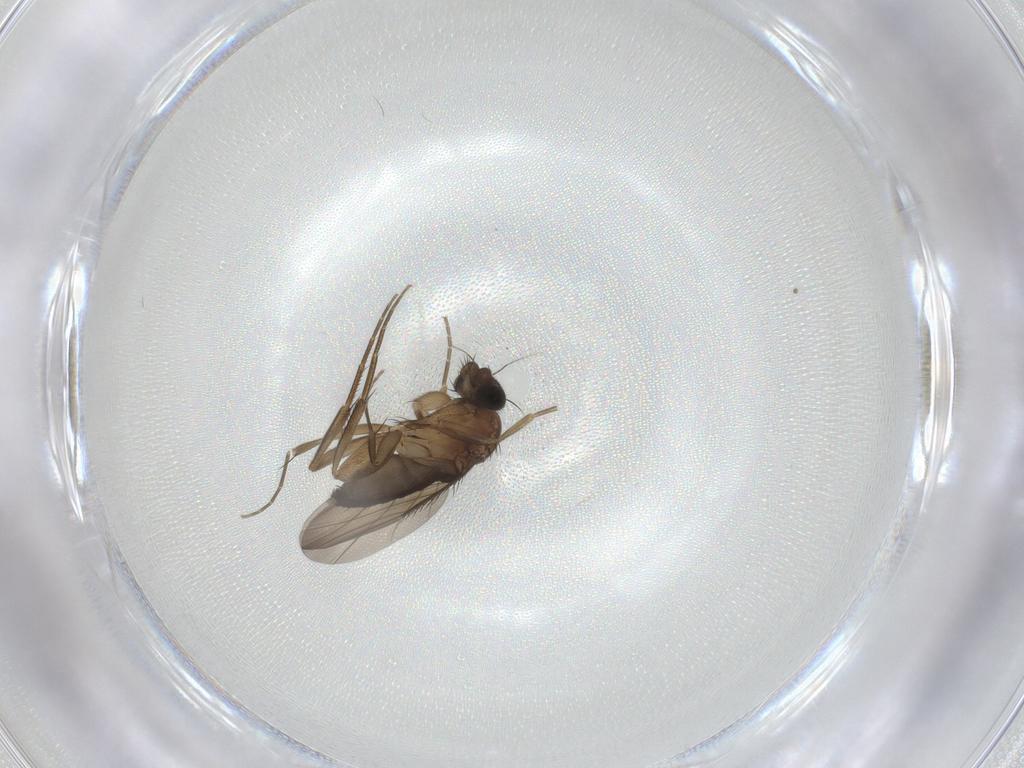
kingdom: Animalia
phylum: Arthropoda
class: Insecta
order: Diptera
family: Phoridae
